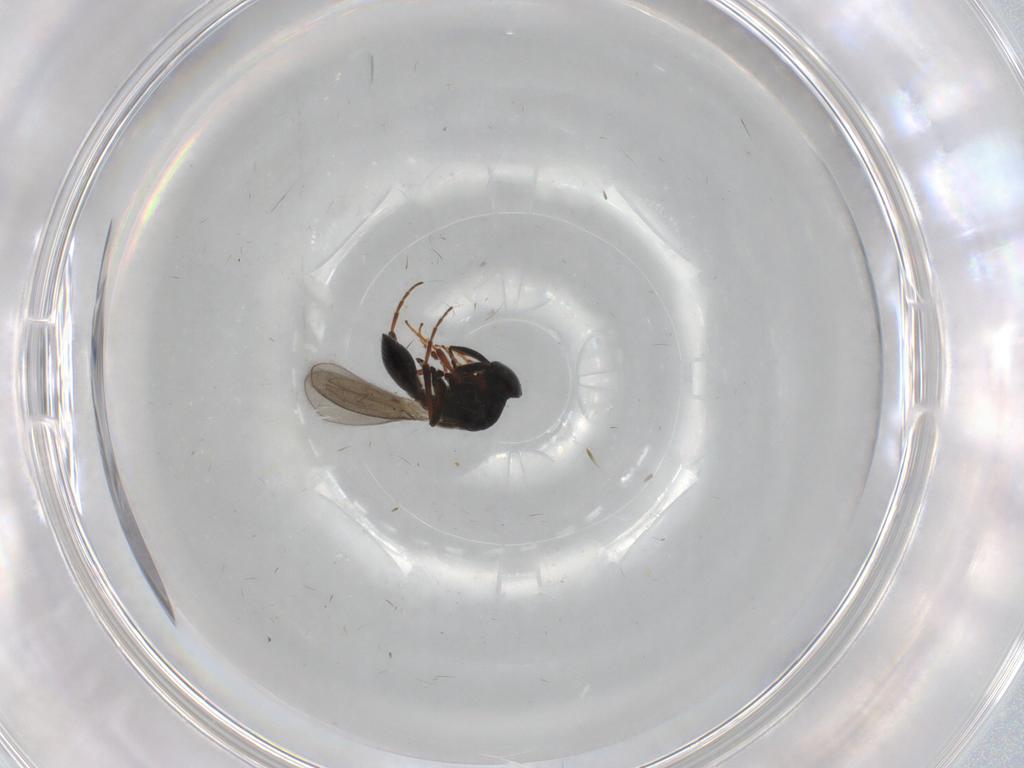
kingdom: Animalia
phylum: Arthropoda
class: Insecta
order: Hymenoptera
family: Platygastridae
